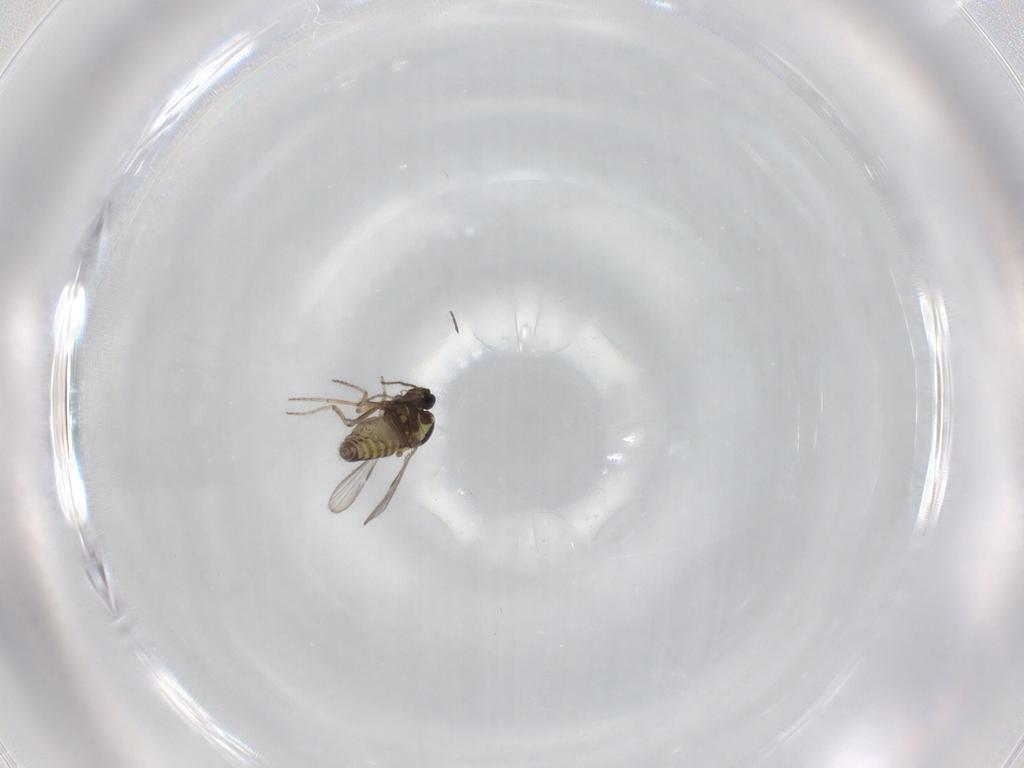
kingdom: Animalia
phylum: Arthropoda
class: Insecta
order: Diptera
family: Ceratopogonidae
